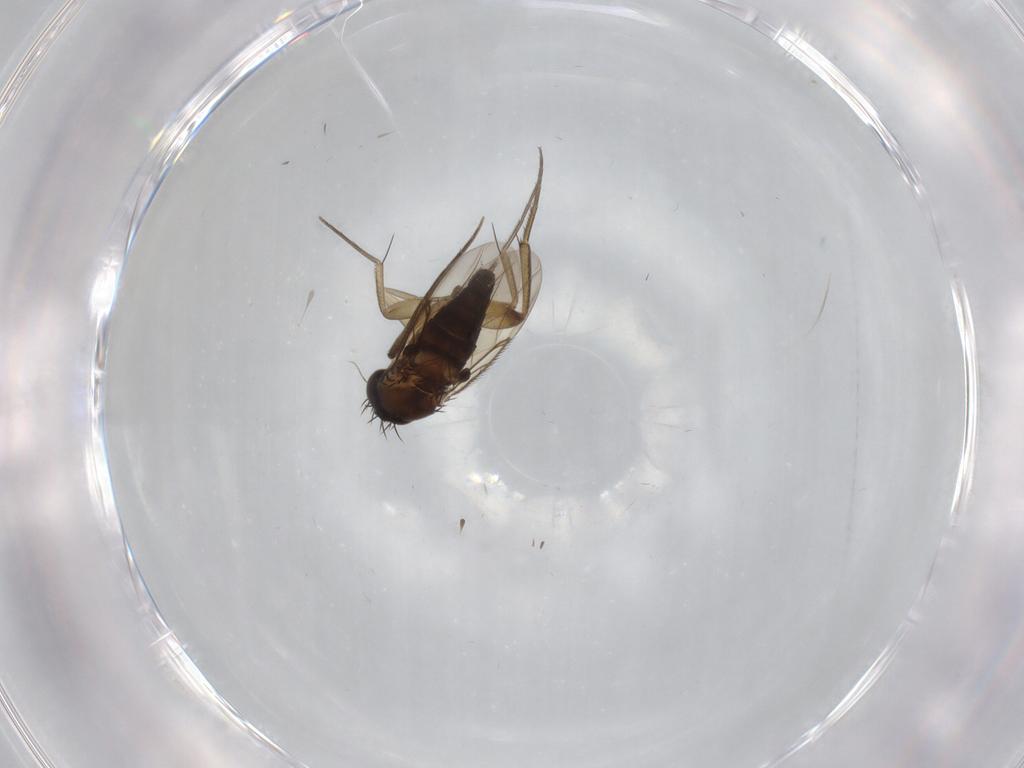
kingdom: Animalia
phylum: Arthropoda
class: Insecta
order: Diptera
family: Phoridae
